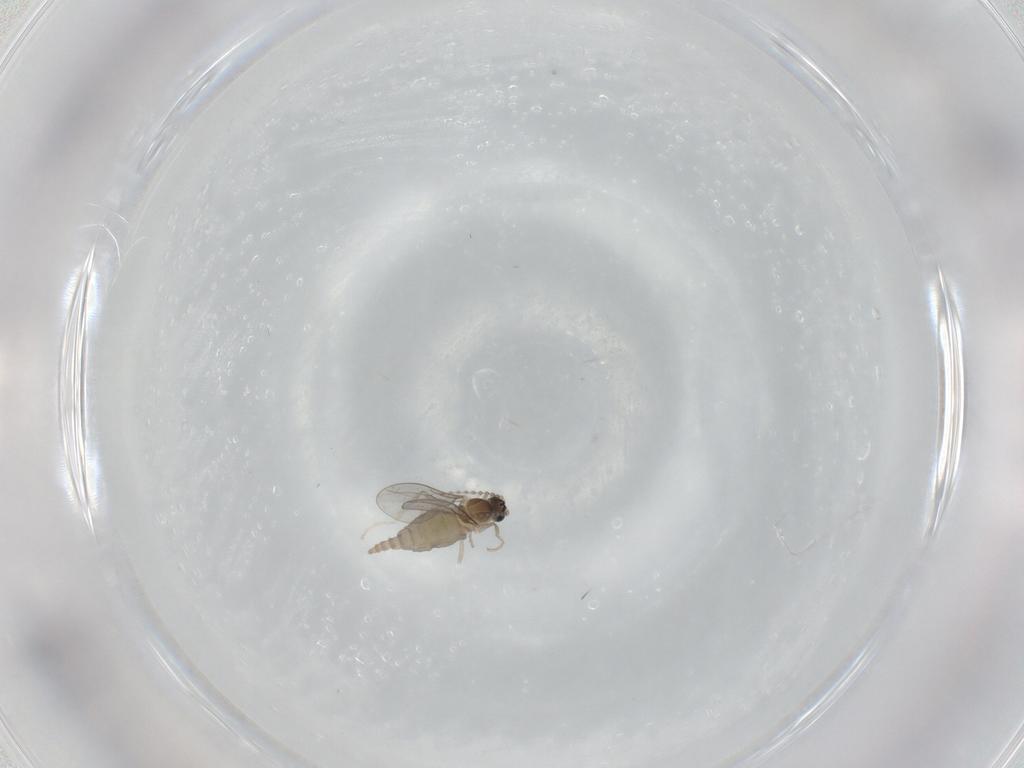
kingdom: Animalia
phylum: Arthropoda
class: Insecta
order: Diptera
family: Cecidomyiidae
